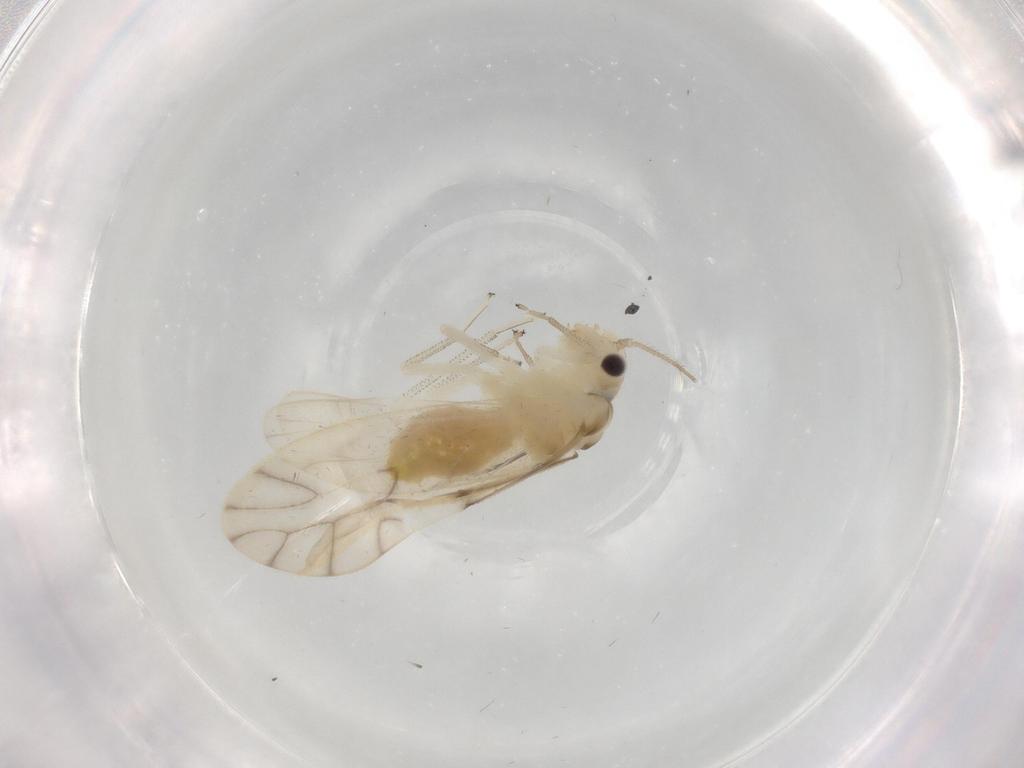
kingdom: Animalia
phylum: Arthropoda
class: Insecta
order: Psocodea
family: Caeciliusidae
